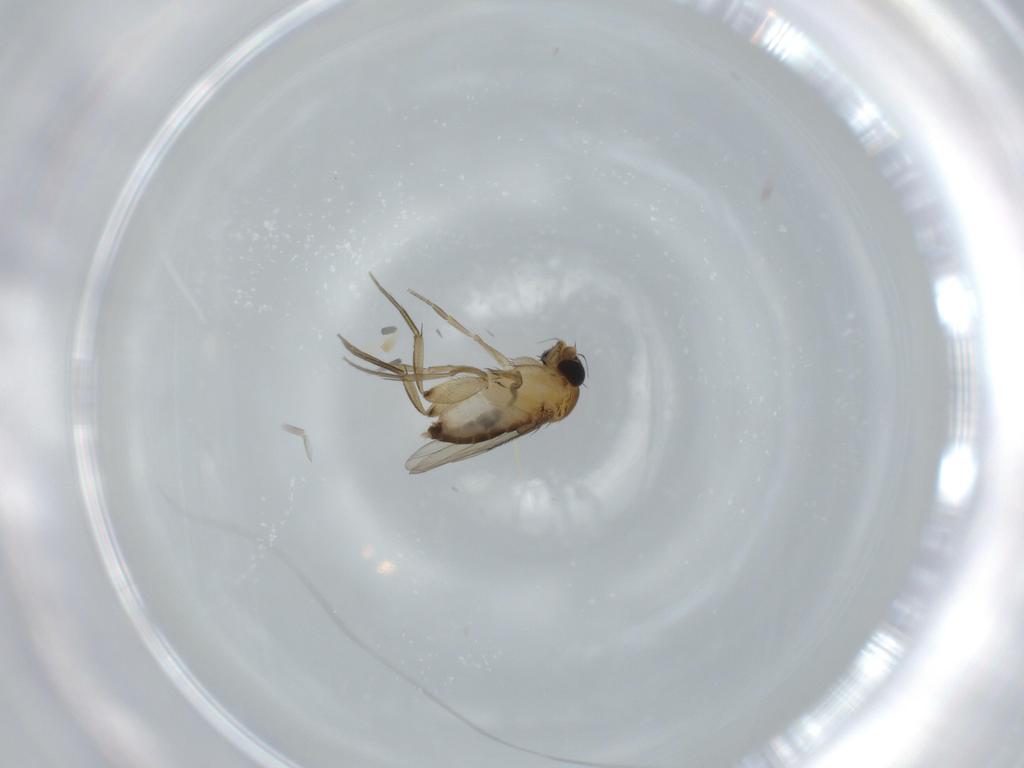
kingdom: Animalia
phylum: Arthropoda
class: Insecta
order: Diptera
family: Phoridae
